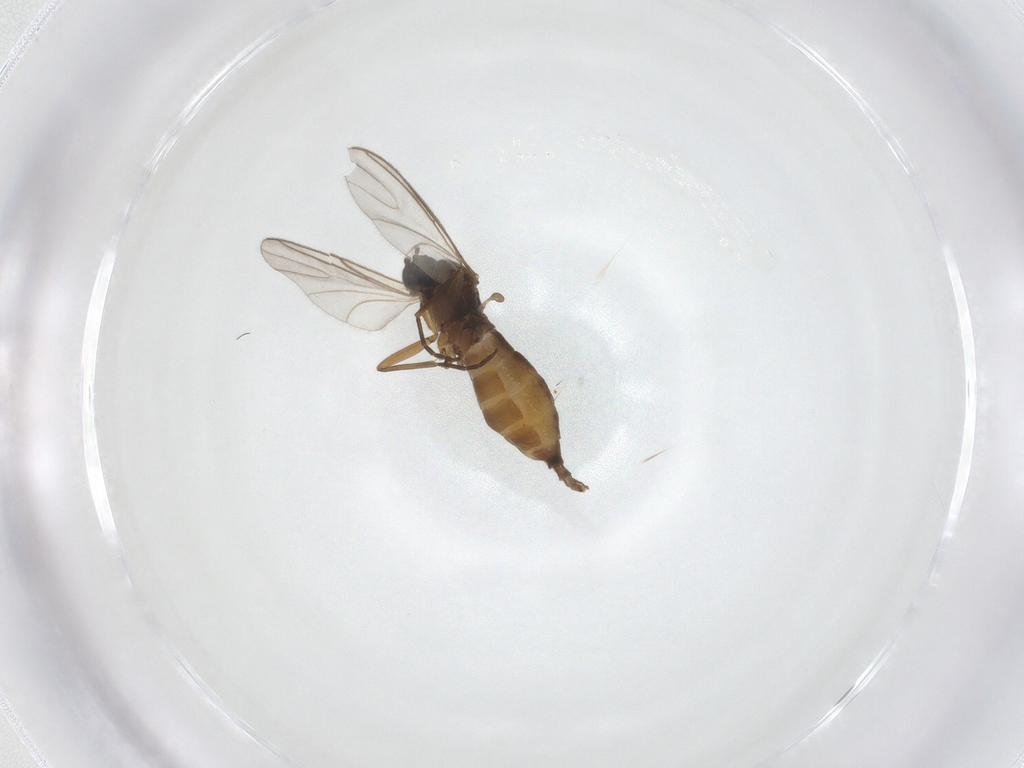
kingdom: Animalia
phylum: Arthropoda
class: Insecta
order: Diptera
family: Sciaridae
